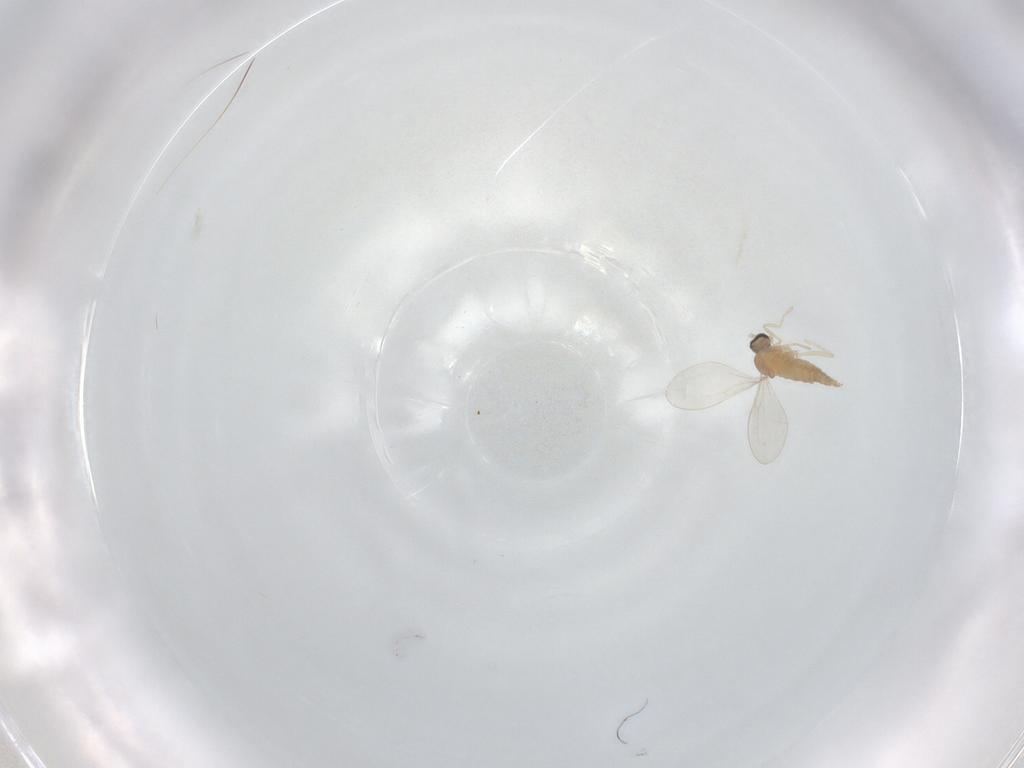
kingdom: Animalia
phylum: Arthropoda
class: Insecta
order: Diptera
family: Cecidomyiidae
